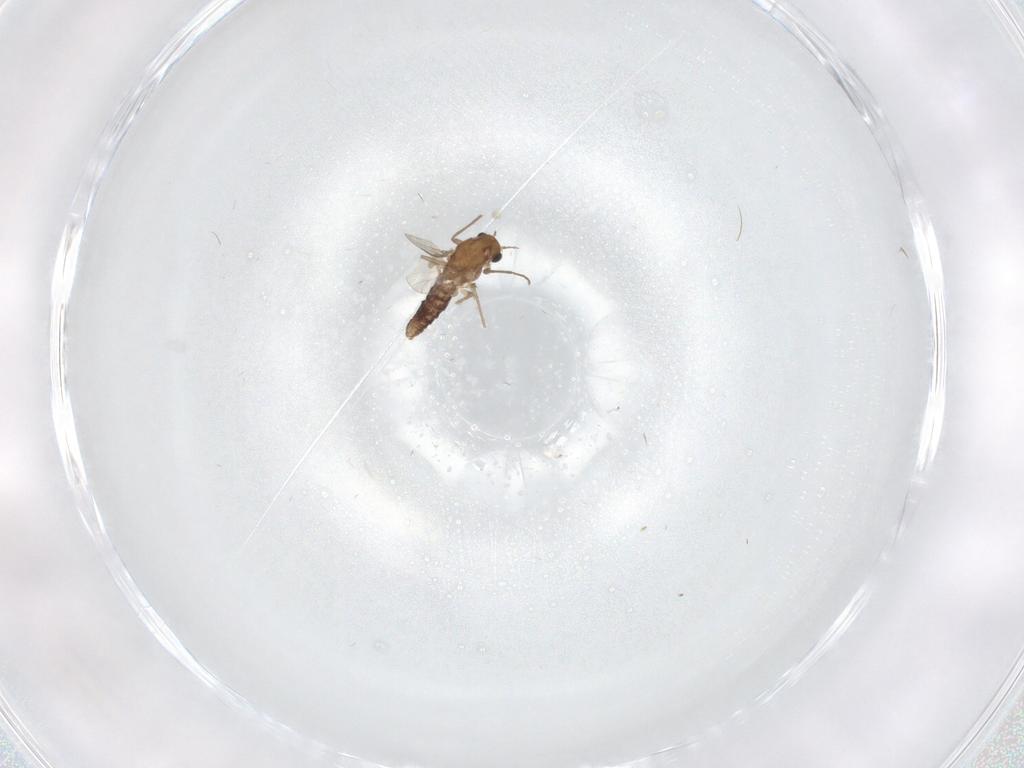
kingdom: Animalia
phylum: Arthropoda
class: Insecta
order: Diptera
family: Chironomidae
